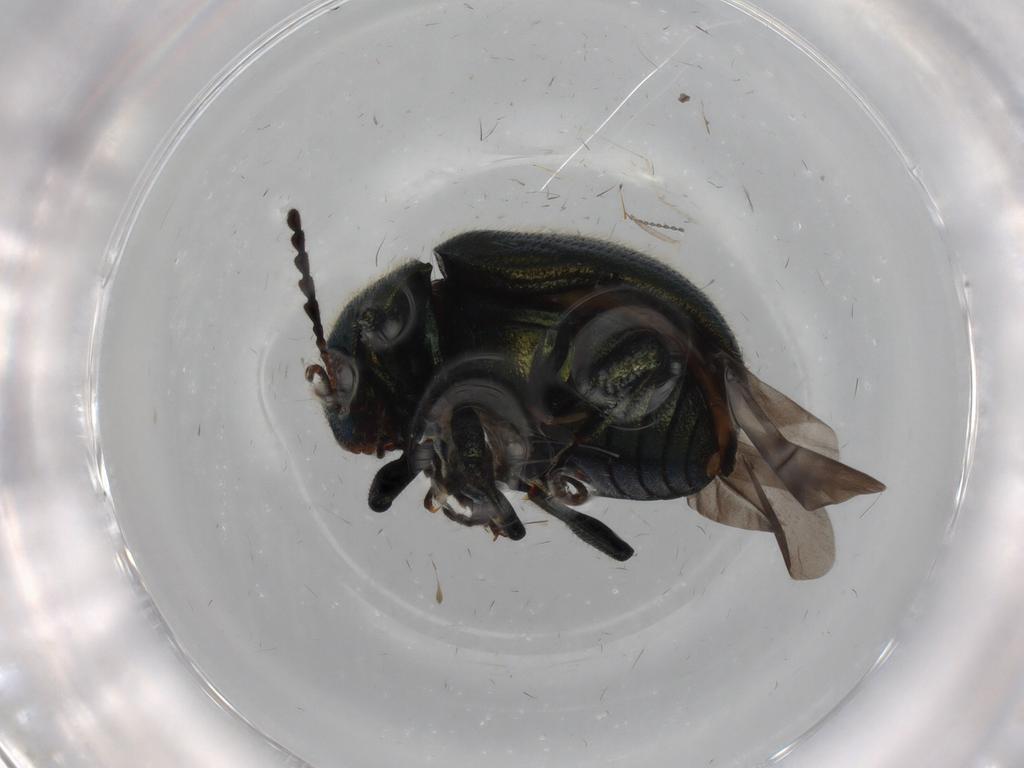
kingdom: Animalia
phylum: Arthropoda
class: Insecta
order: Coleoptera
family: Chrysomelidae
